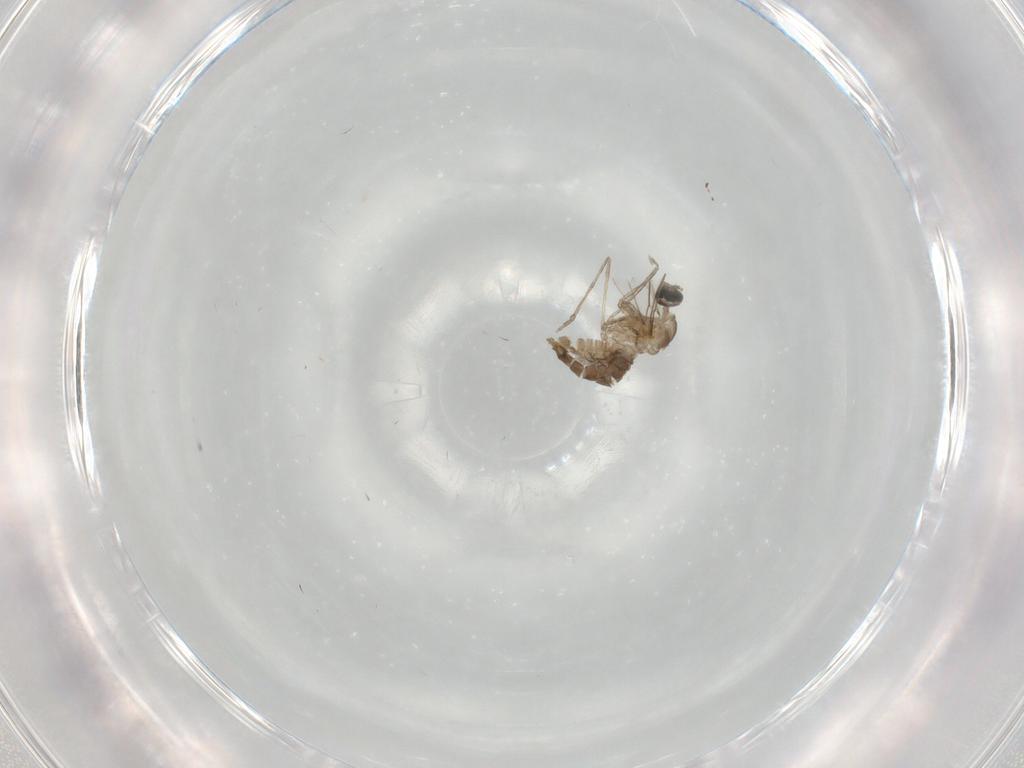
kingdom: Animalia
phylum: Arthropoda
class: Insecta
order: Diptera
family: Cecidomyiidae
